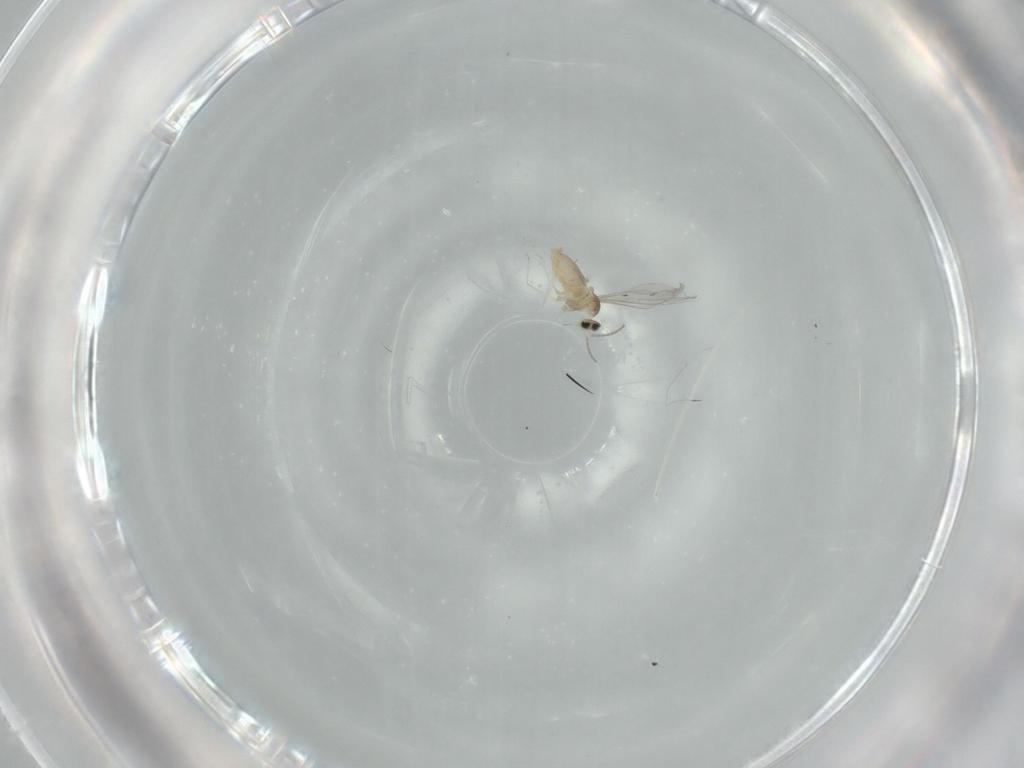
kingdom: Animalia
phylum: Arthropoda
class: Insecta
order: Diptera
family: Cecidomyiidae
